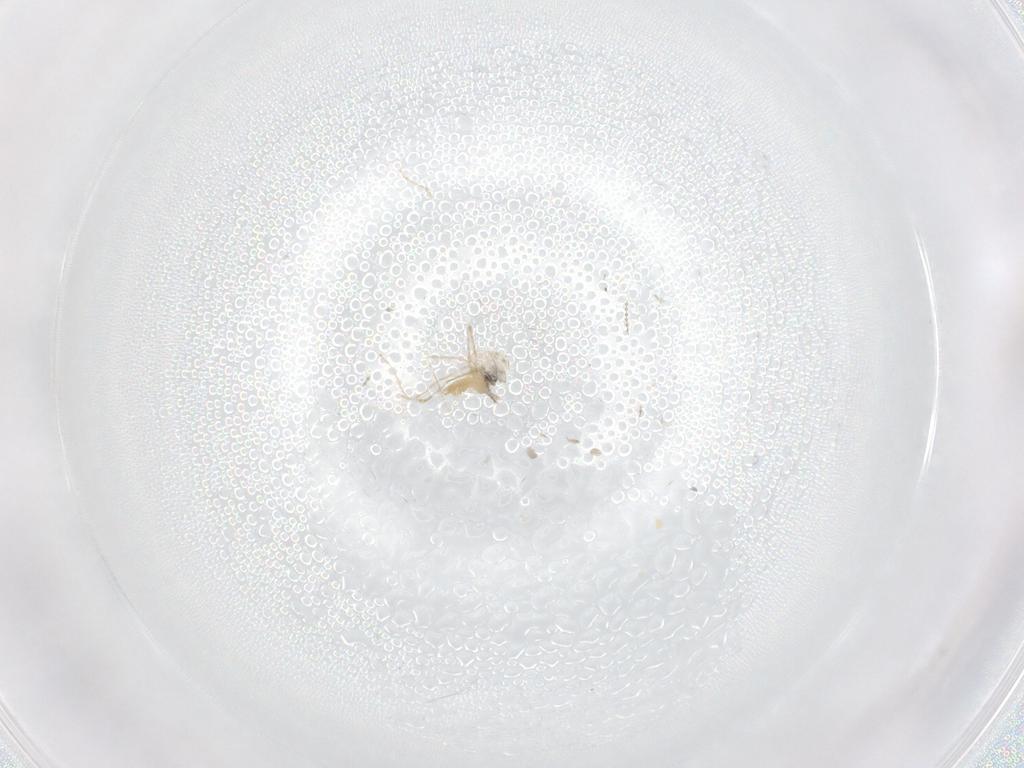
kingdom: Animalia
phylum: Arthropoda
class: Insecta
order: Diptera
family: Cecidomyiidae
